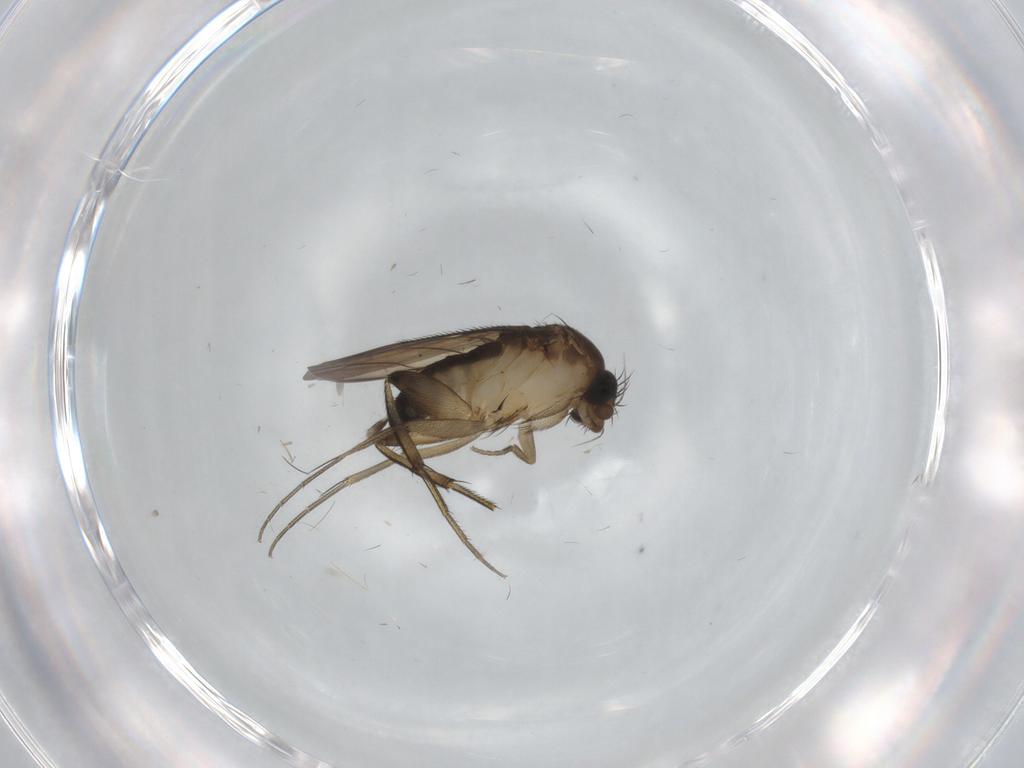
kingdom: Animalia
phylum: Arthropoda
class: Insecta
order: Diptera
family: Phoridae
